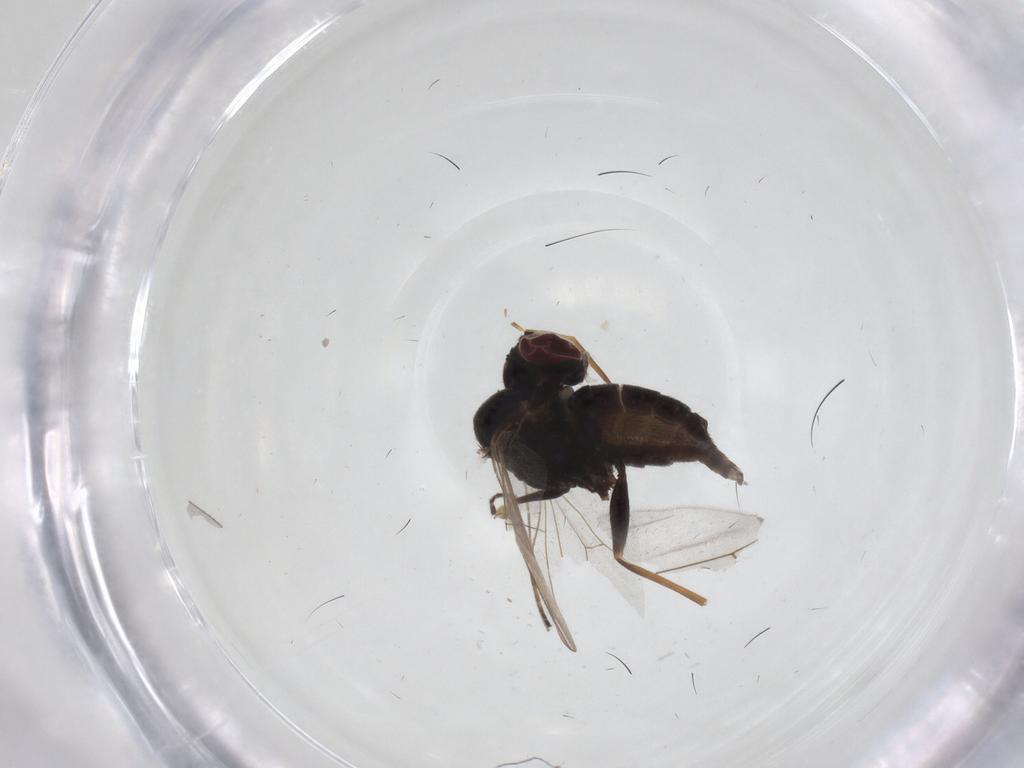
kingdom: Animalia
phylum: Arthropoda
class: Insecta
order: Diptera
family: Dolichopodidae
